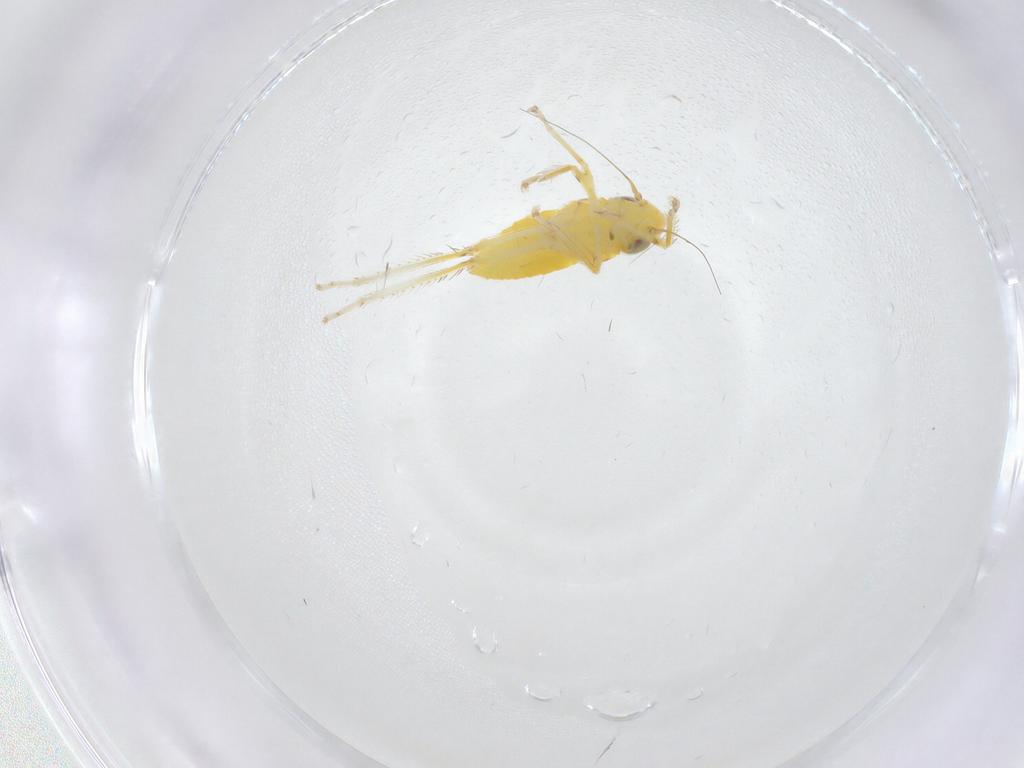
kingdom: Animalia
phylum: Arthropoda
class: Insecta
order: Hemiptera
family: Cicadellidae
